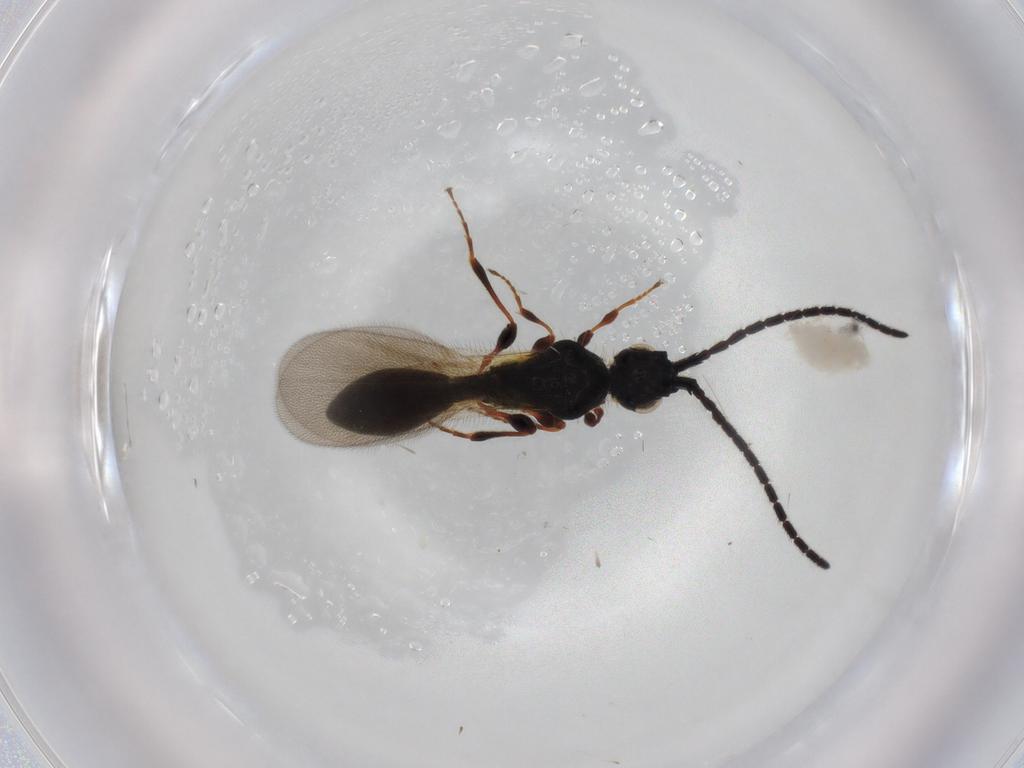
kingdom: Animalia
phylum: Arthropoda
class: Insecta
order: Hymenoptera
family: Diapriidae
